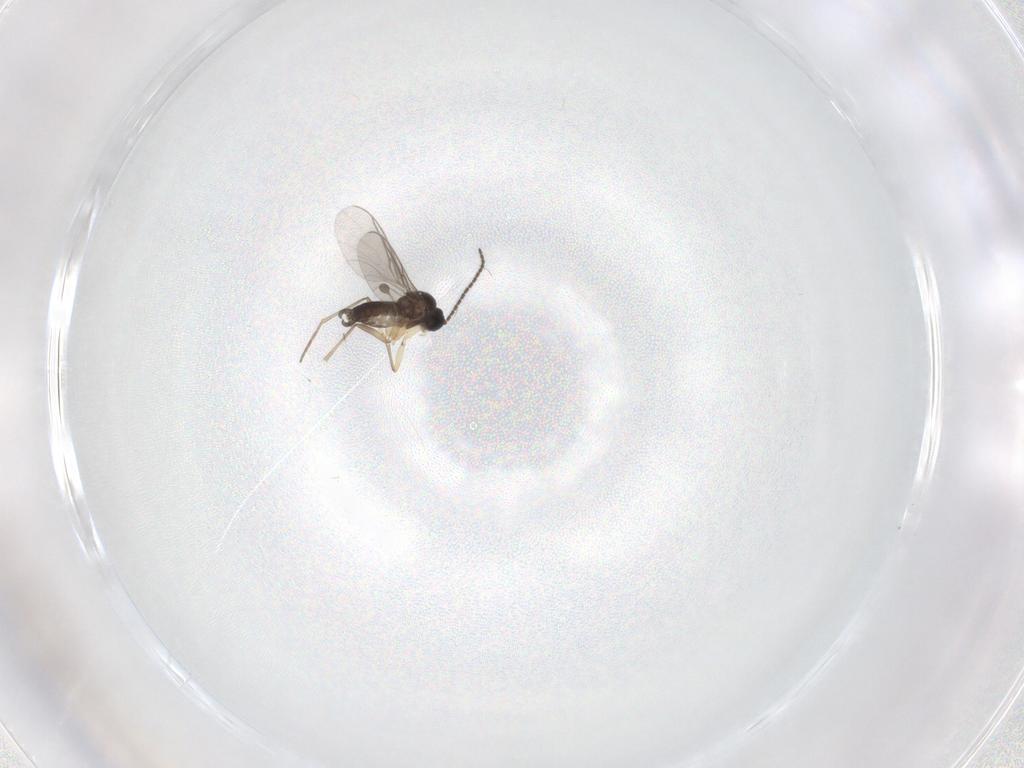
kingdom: Animalia
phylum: Arthropoda
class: Insecta
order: Diptera
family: Sciaridae
